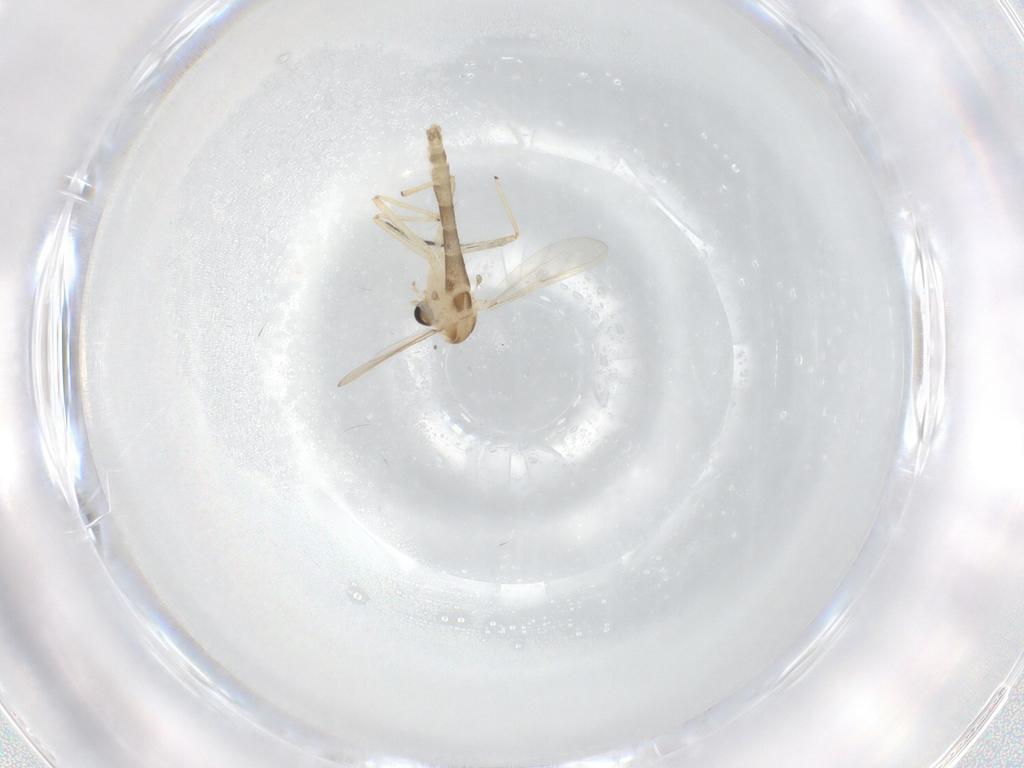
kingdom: Animalia
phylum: Arthropoda
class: Insecta
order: Diptera
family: Chironomidae
